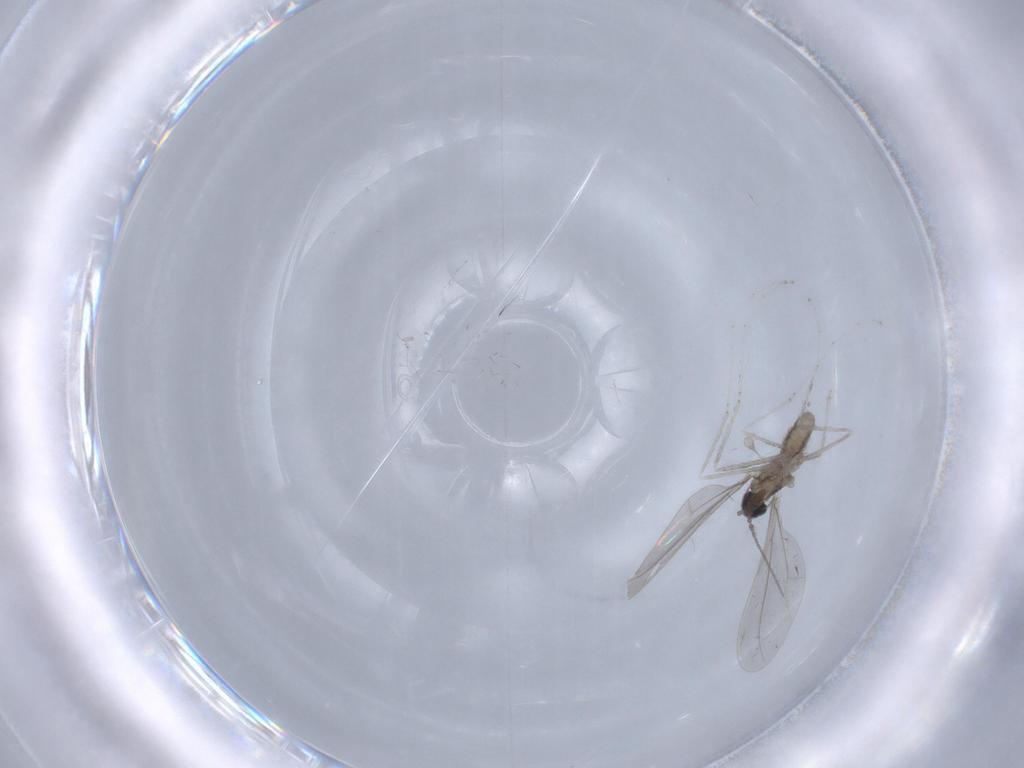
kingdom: Animalia
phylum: Arthropoda
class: Insecta
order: Diptera
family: Cecidomyiidae
